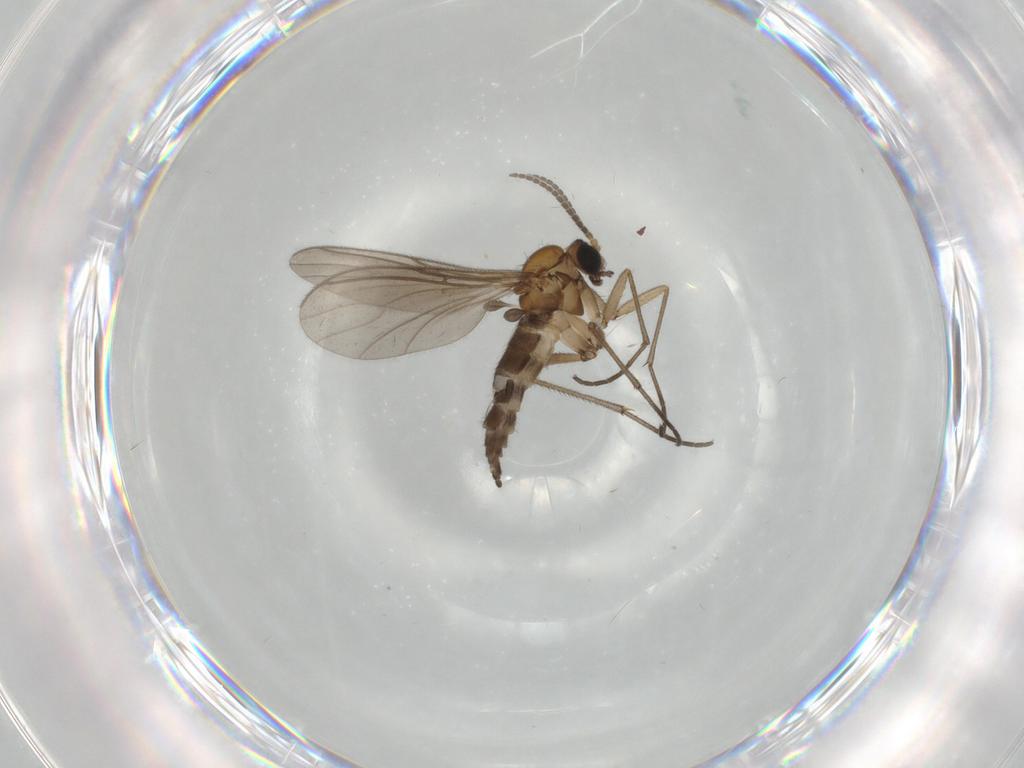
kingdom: Animalia
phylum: Arthropoda
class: Insecta
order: Diptera
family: Sciaridae
